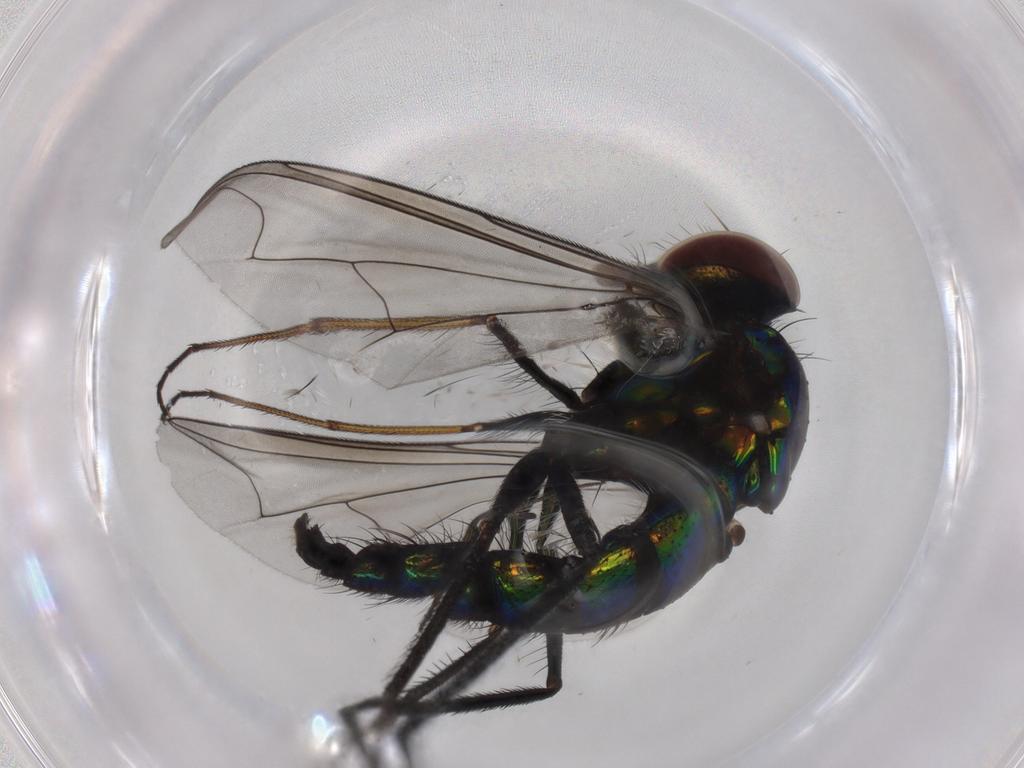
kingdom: Animalia
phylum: Arthropoda
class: Insecta
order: Diptera
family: Dolichopodidae
